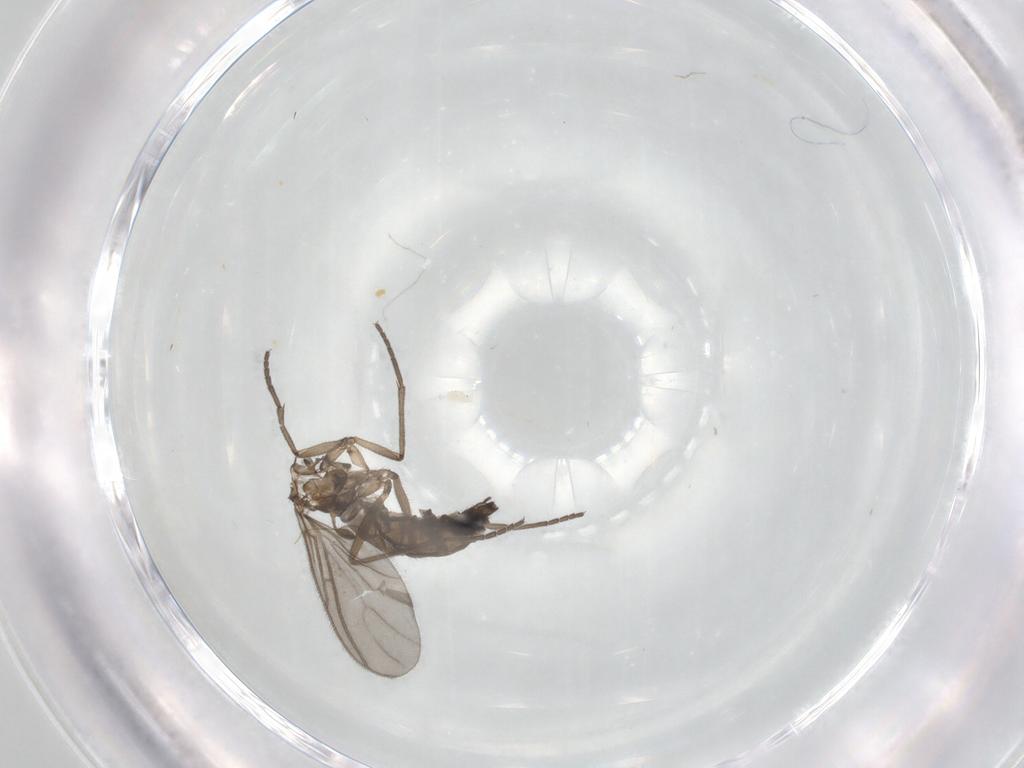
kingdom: Animalia
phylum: Arthropoda
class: Insecta
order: Diptera
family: Sciaridae
